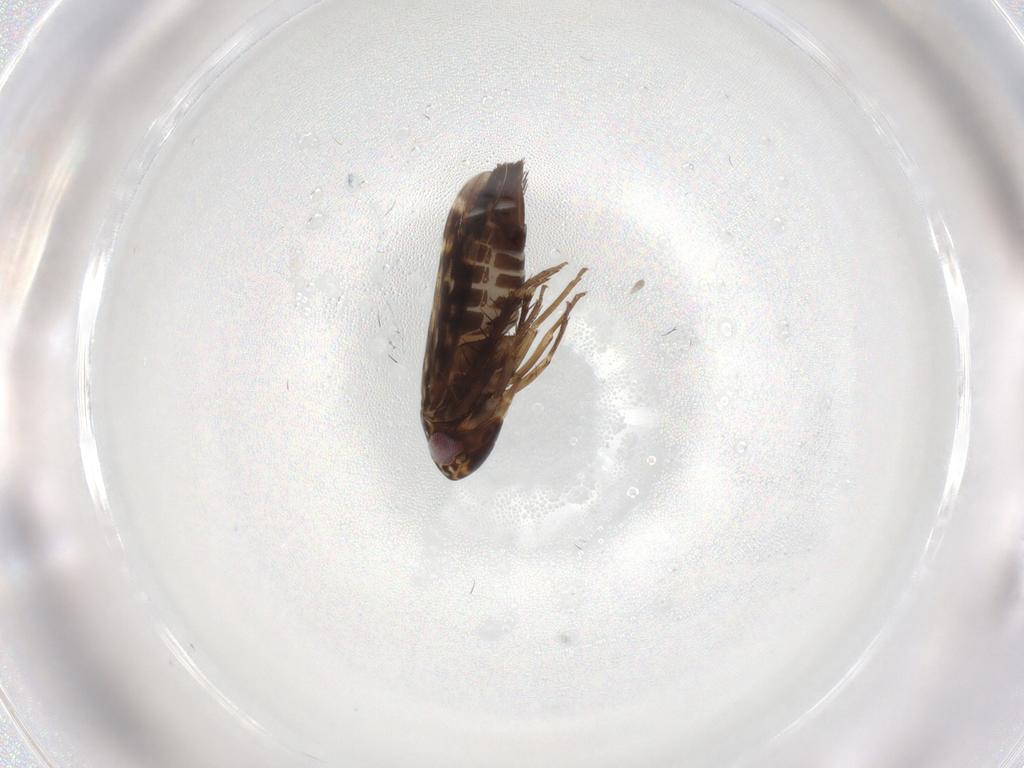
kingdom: Animalia
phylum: Arthropoda
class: Insecta
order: Hemiptera
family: Cicadellidae
